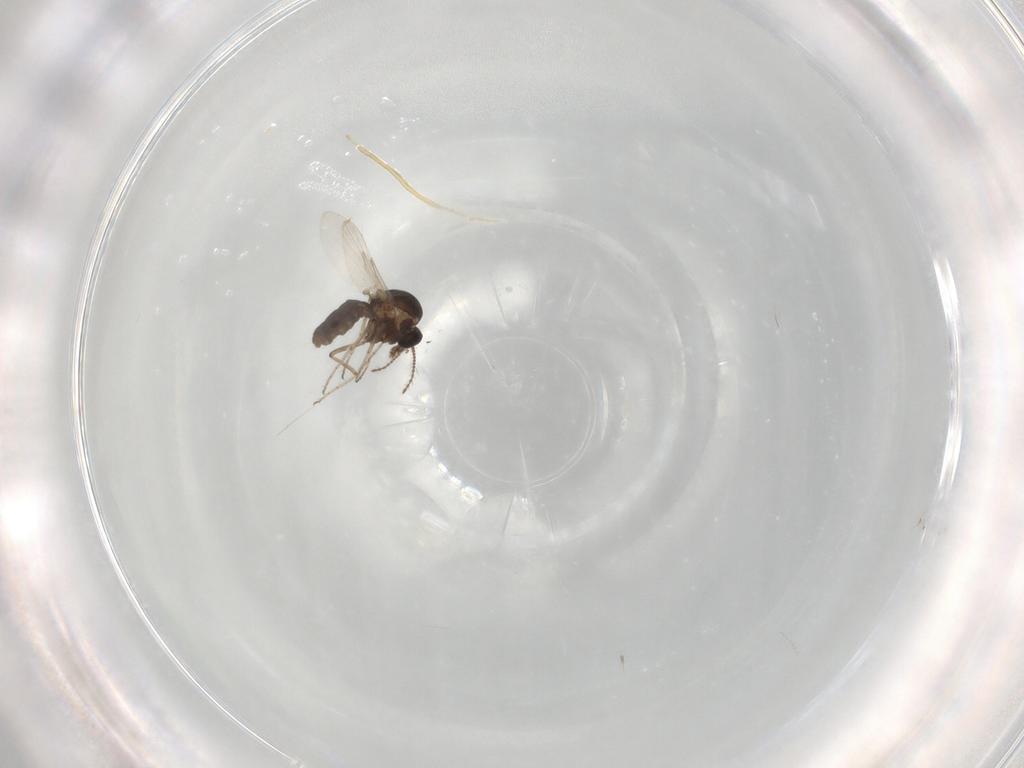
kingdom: Animalia
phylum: Arthropoda
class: Insecta
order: Diptera
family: Ceratopogonidae
